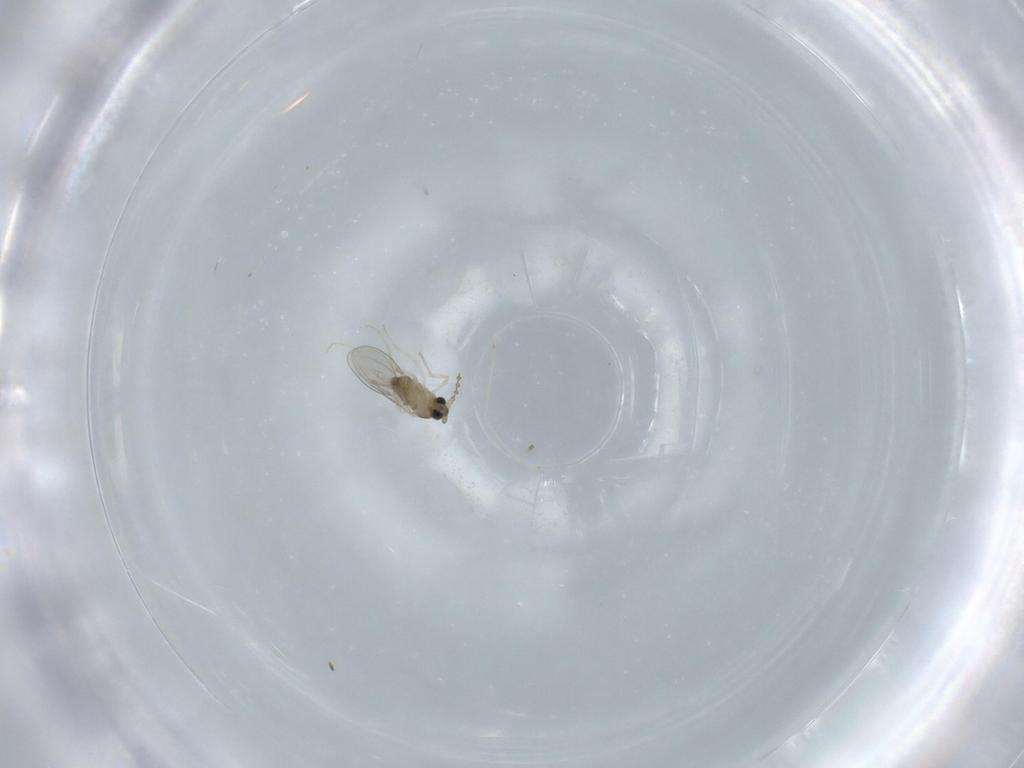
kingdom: Animalia
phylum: Arthropoda
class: Insecta
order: Diptera
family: Cecidomyiidae
